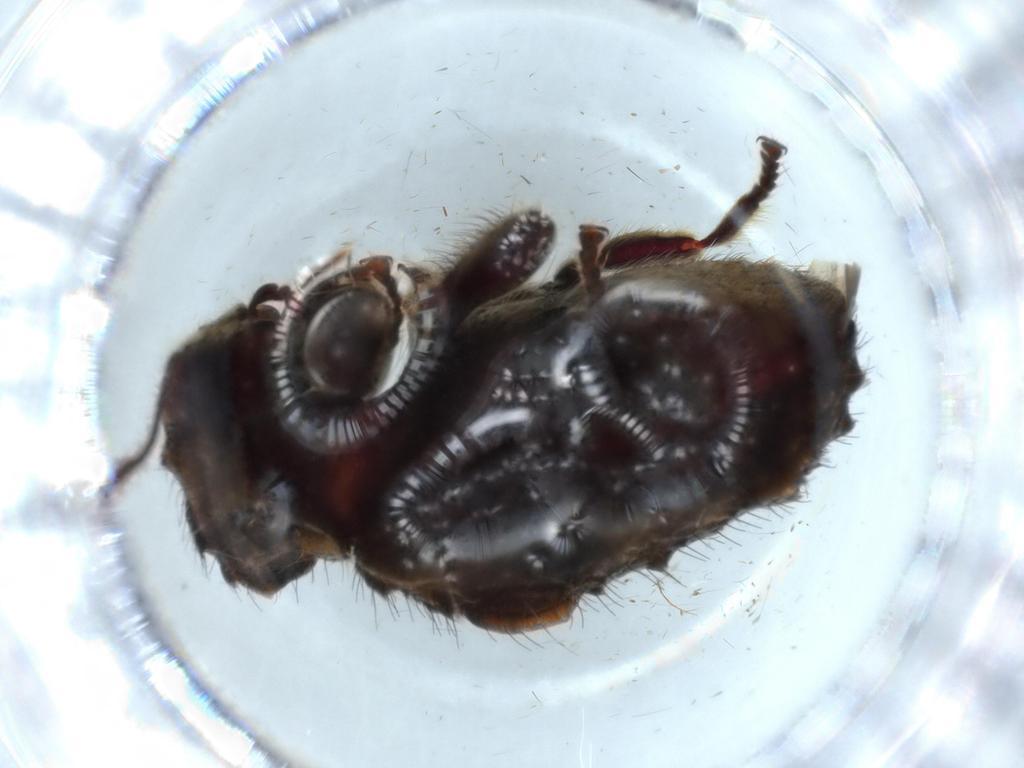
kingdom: Animalia
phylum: Arthropoda
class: Insecta
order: Coleoptera
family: Ptinidae
